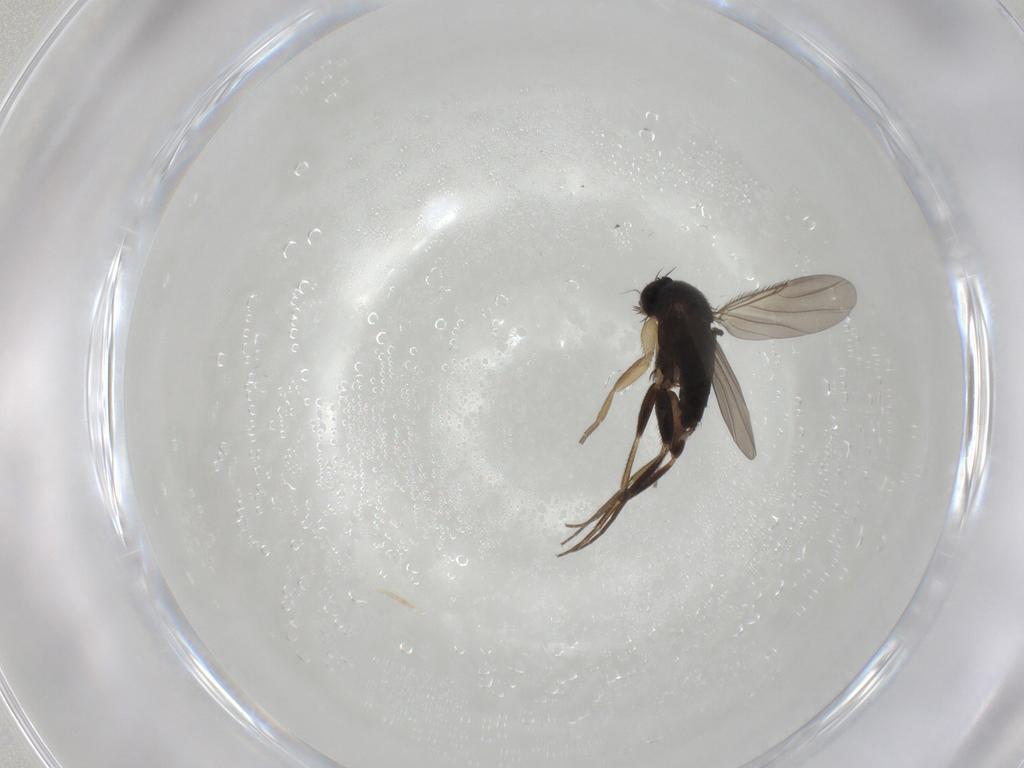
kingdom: Animalia
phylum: Arthropoda
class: Insecta
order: Diptera
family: Phoridae
